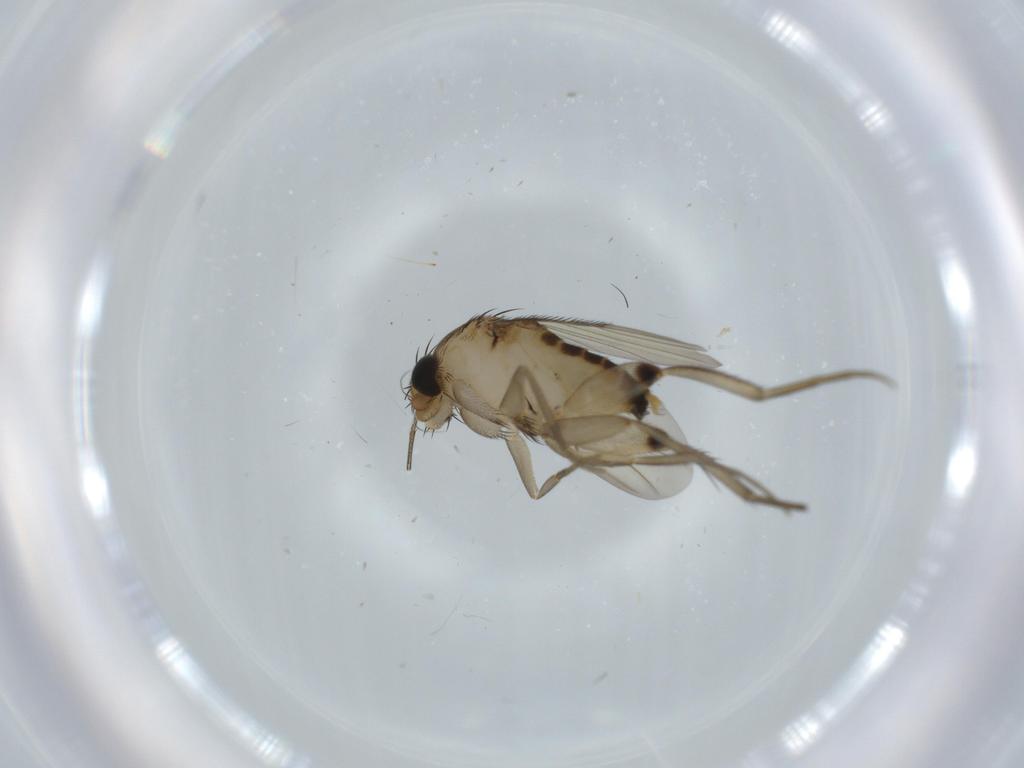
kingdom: Animalia
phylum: Arthropoda
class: Insecta
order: Diptera
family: Phoridae
